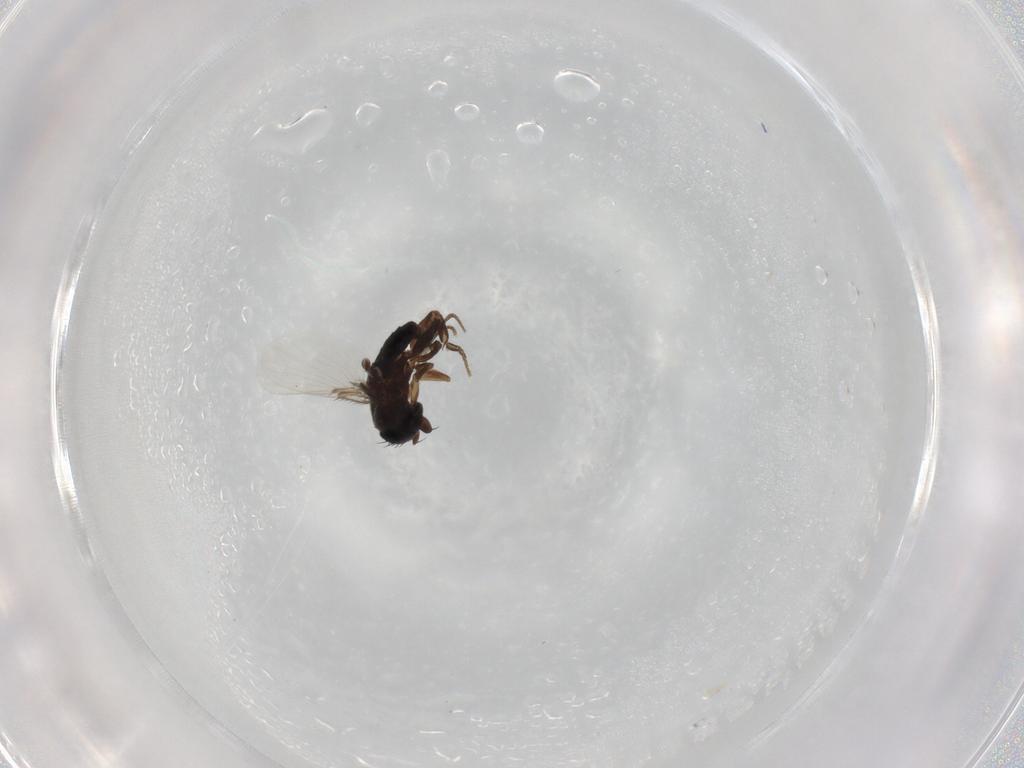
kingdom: Animalia
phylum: Arthropoda
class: Insecta
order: Diptera
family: Phoridae
